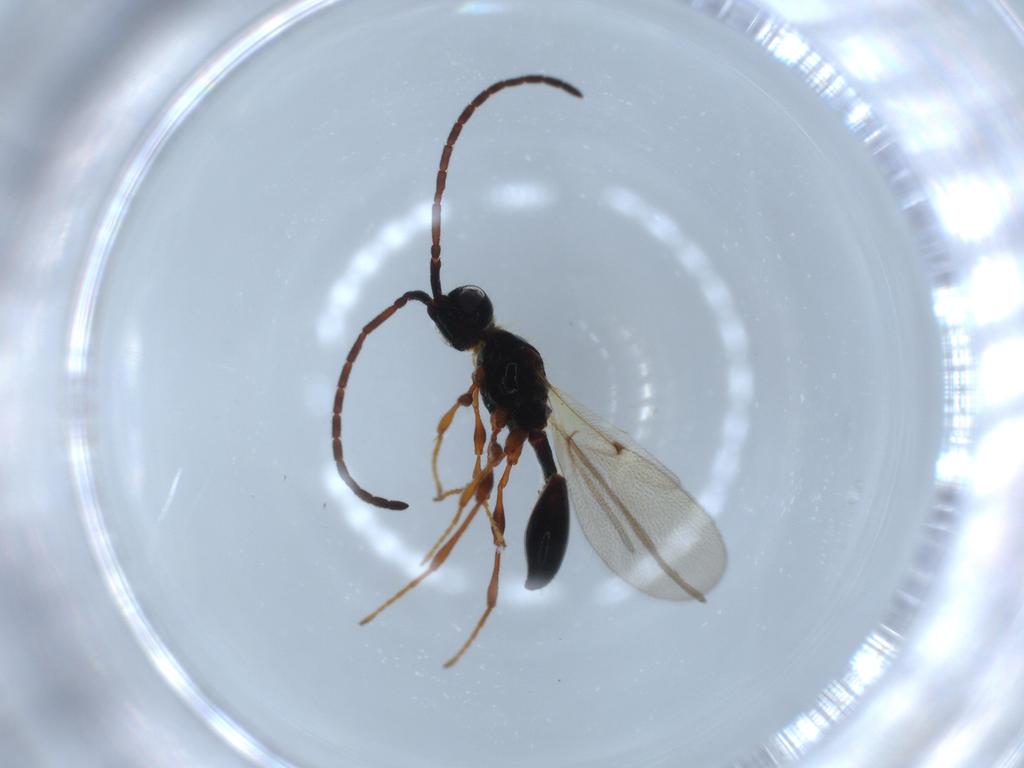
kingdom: Animalia
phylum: Arthropoda
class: Insecta
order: Hymenoptera
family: Diapriidae
